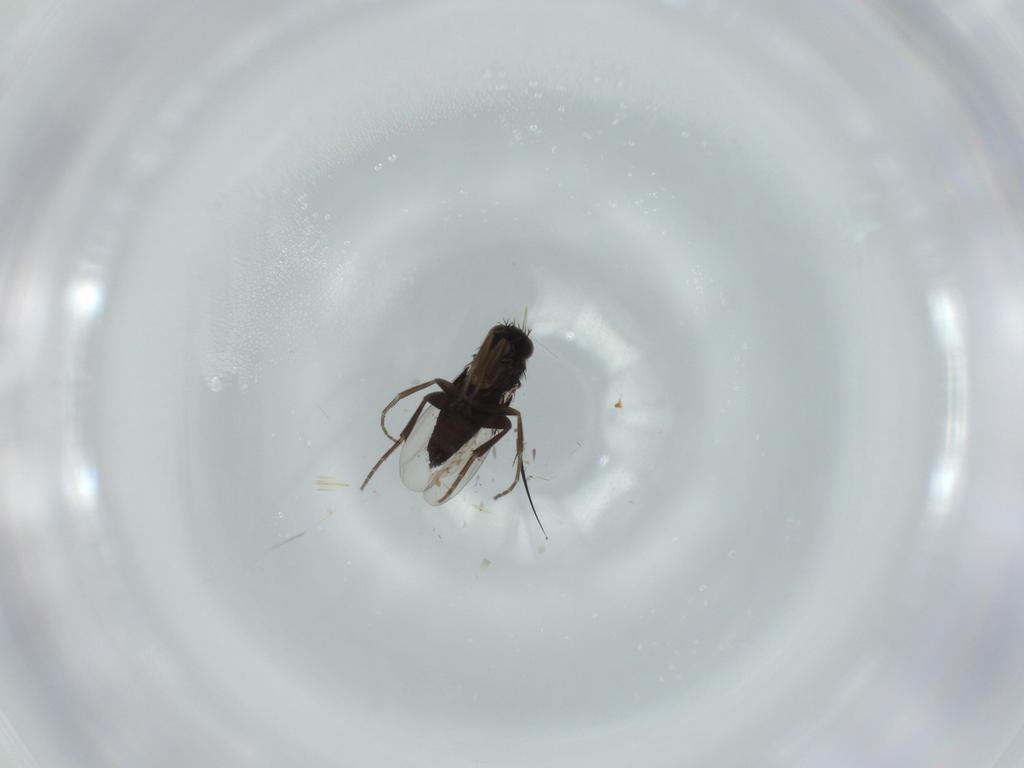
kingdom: Animalia
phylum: Arthropoda
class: Insecta
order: Diptera
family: Phoridae
